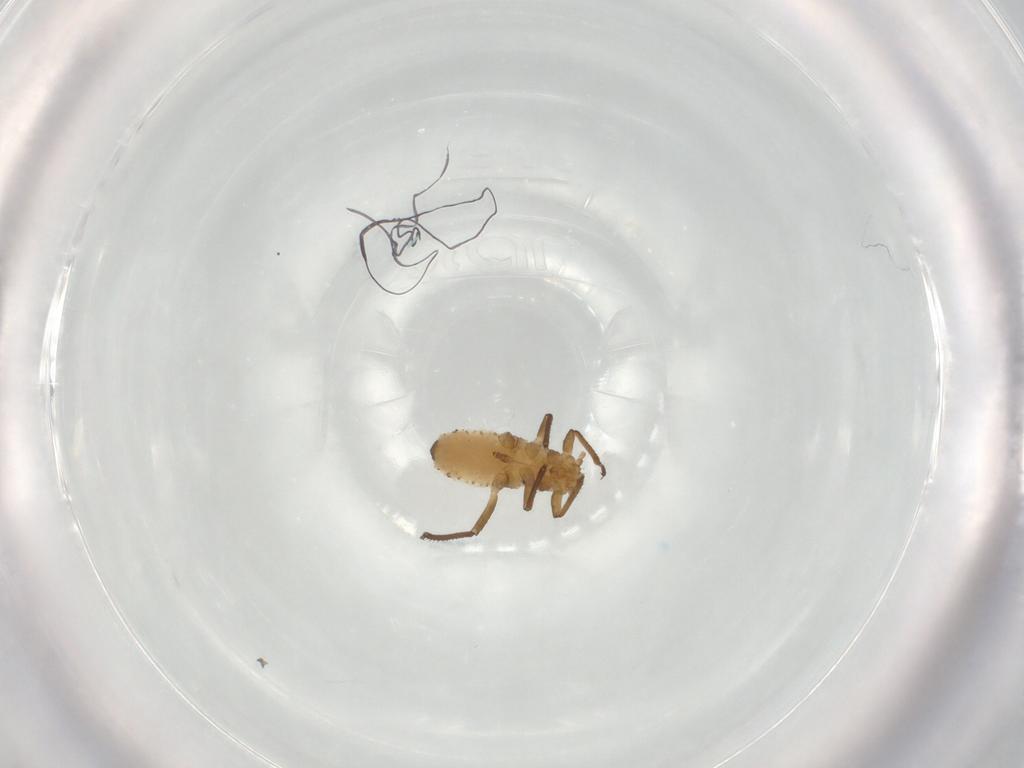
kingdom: Animalia
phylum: Arthropoda
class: Insecta
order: Hemiptera
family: Aphididae
